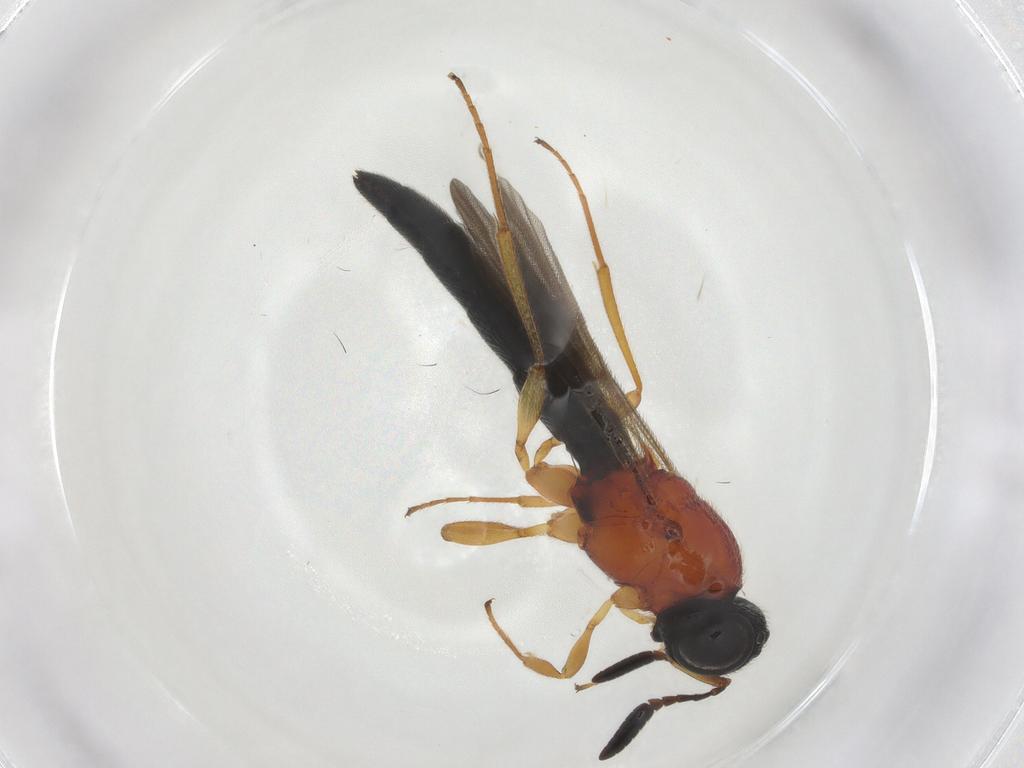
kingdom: Animalia
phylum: Arthropoda
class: Insecta
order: Hymenoptera
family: Scelionidae
